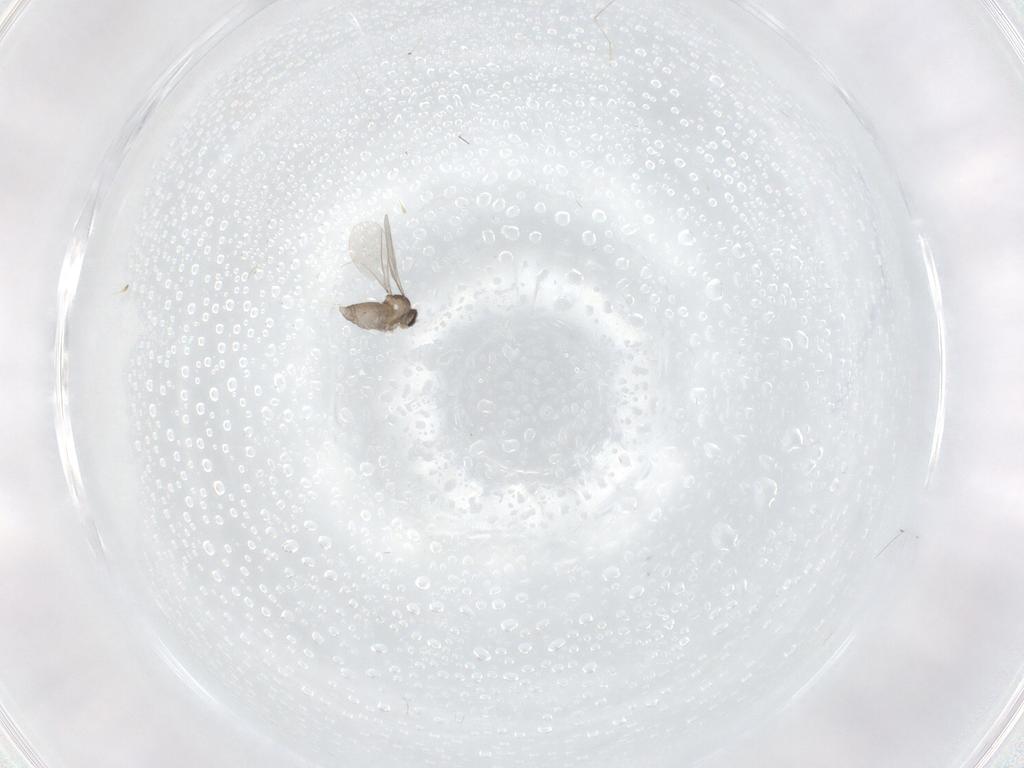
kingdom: Animalia
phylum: Arthropoda
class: Insecta
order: Diptera
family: Cecidomyiidae
